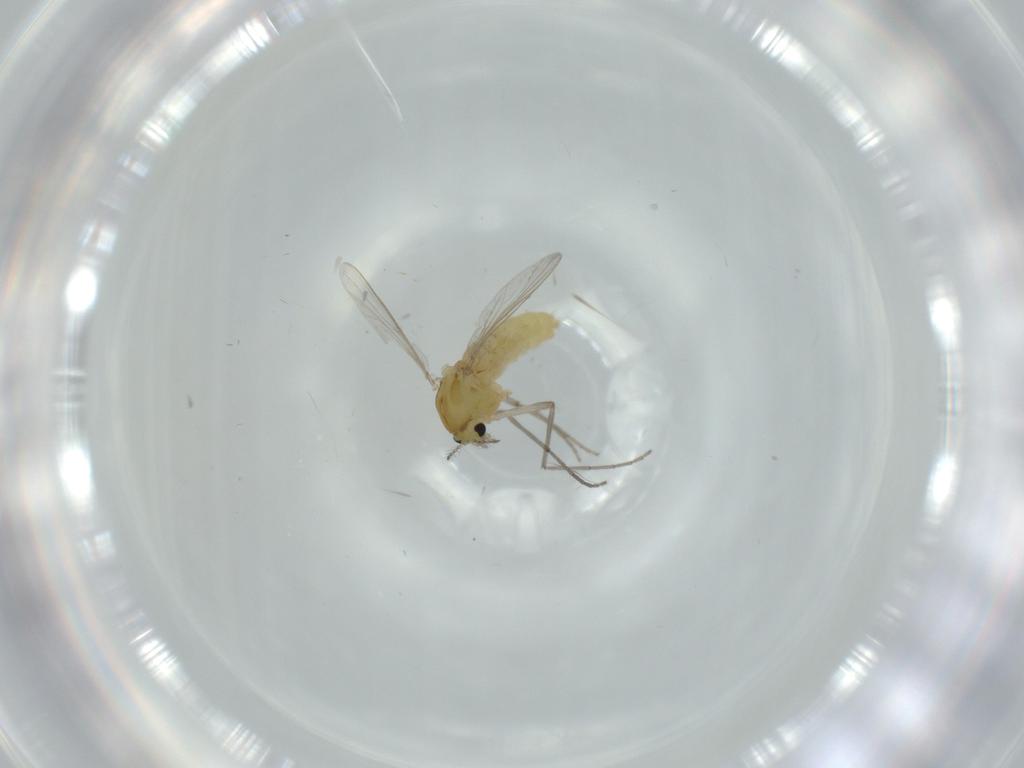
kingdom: Animalia
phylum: Arthropoda
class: Insecta
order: Diptera
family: Chironomidae
